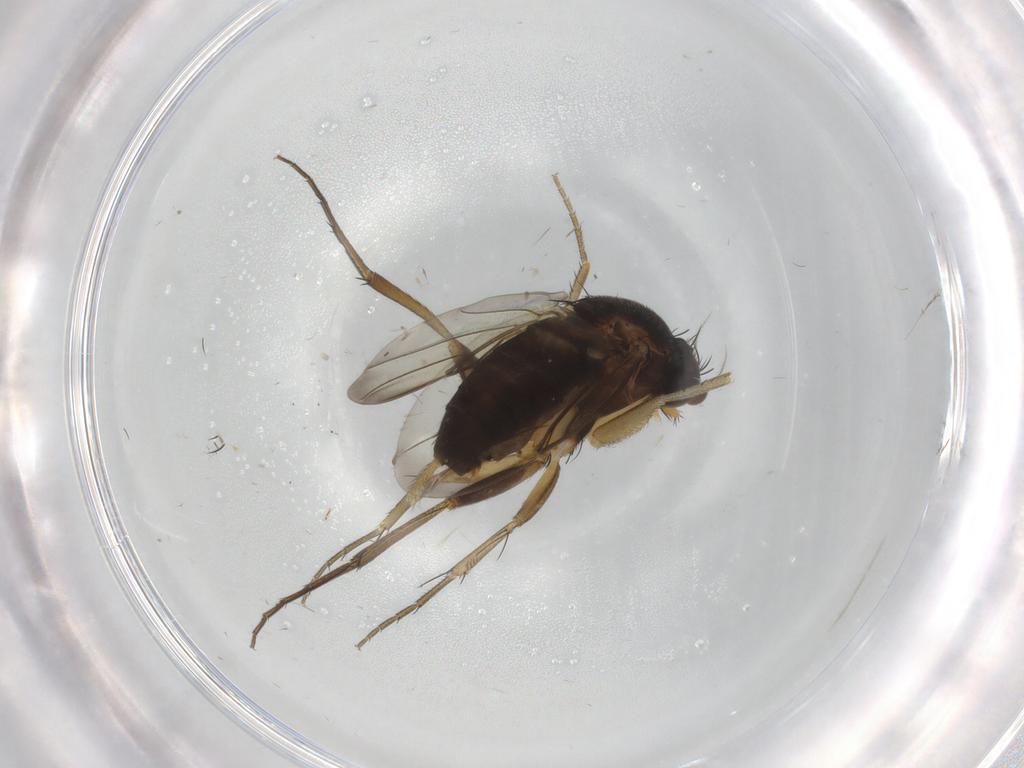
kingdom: Animalia
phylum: Arthropoda
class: Insecta
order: Diptera
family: Phoridae
